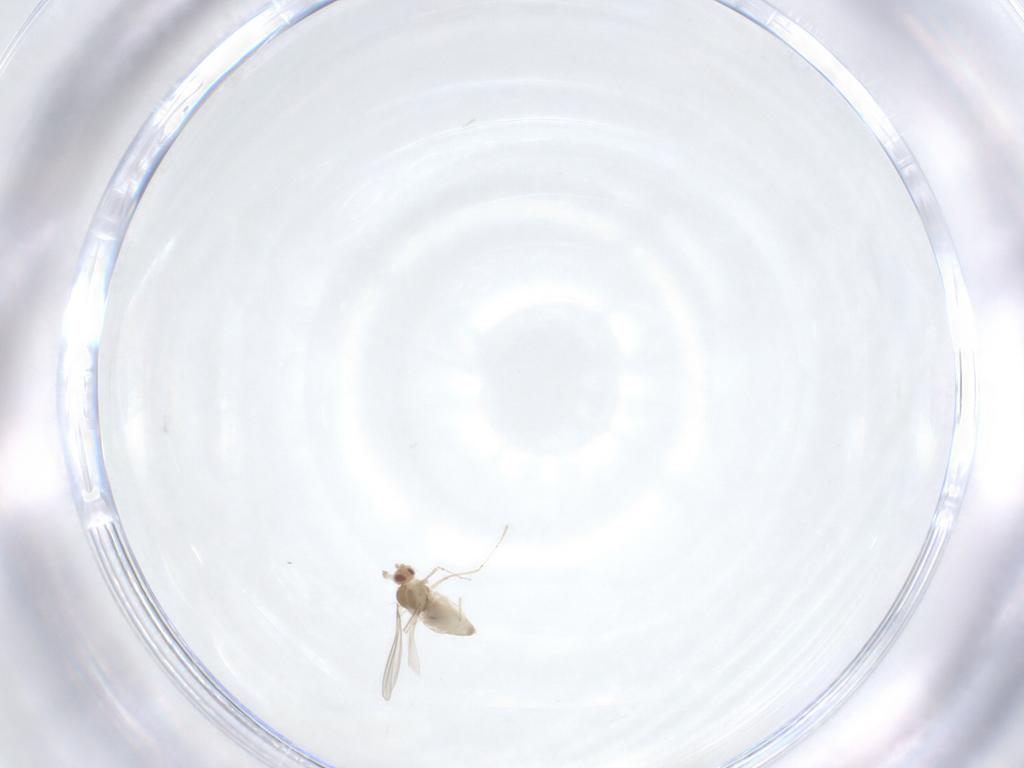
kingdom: Animalia
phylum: Arthropoda
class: Insecta
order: Diptera
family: Cecidomyiidae
